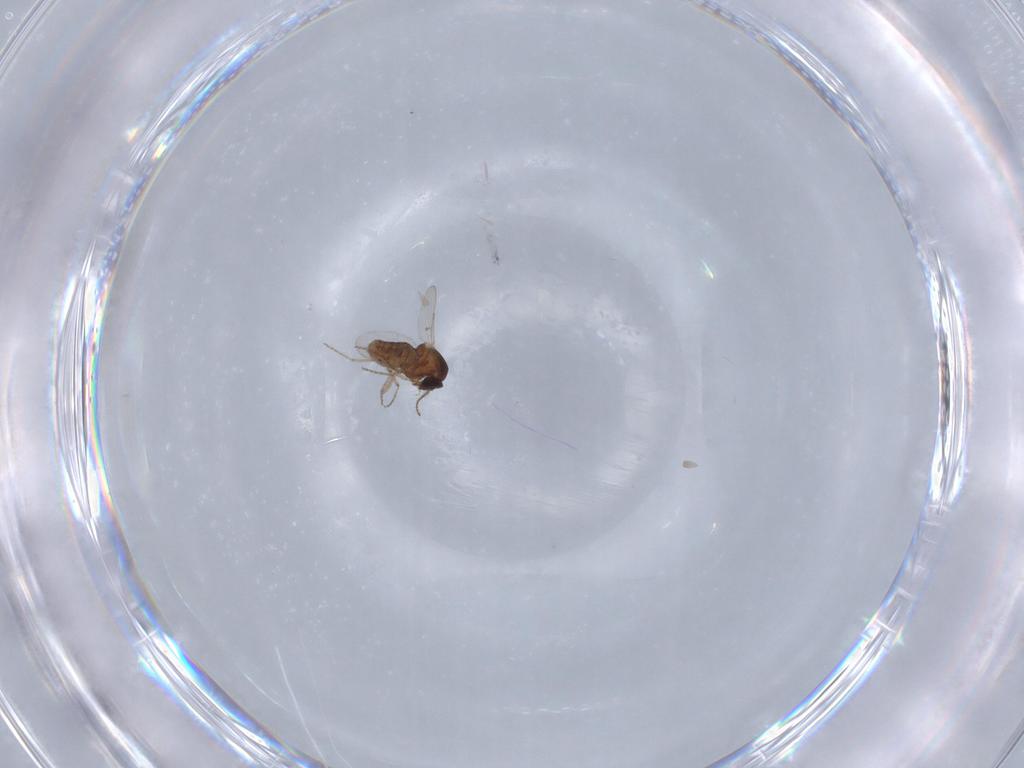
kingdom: Animalia
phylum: Arthropoda
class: Insecta
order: Diptera
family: Ceratopogonidae
